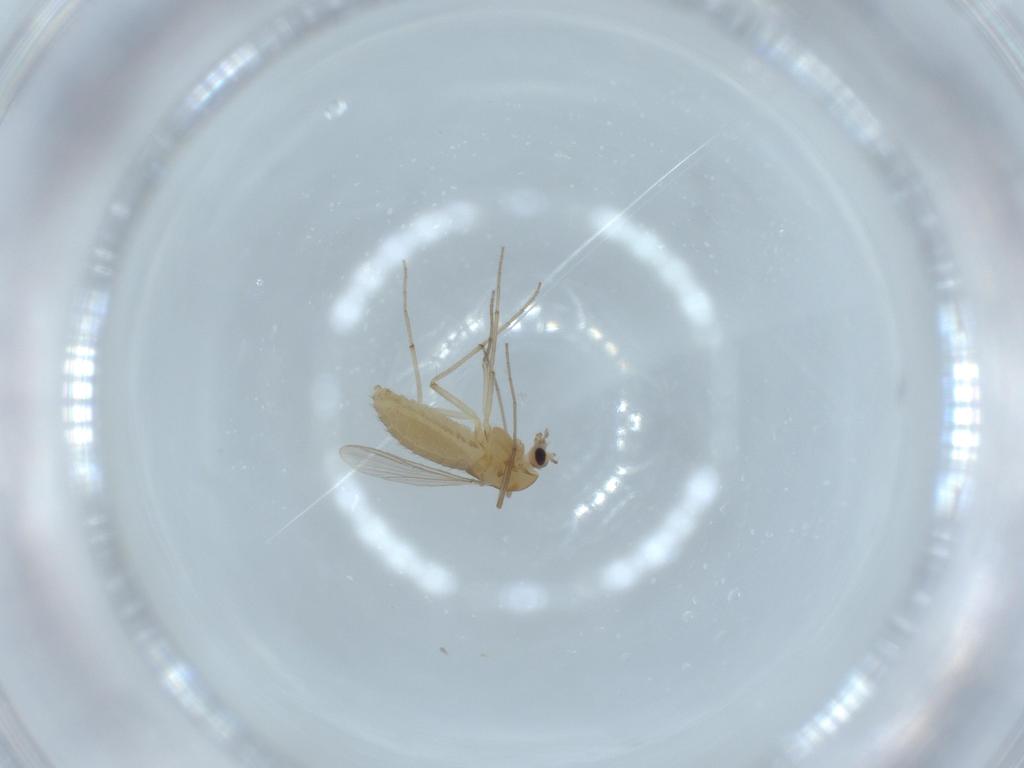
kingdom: Animalia
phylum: Arthropoda
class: Insecta
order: Diptera
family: Chironomidae
